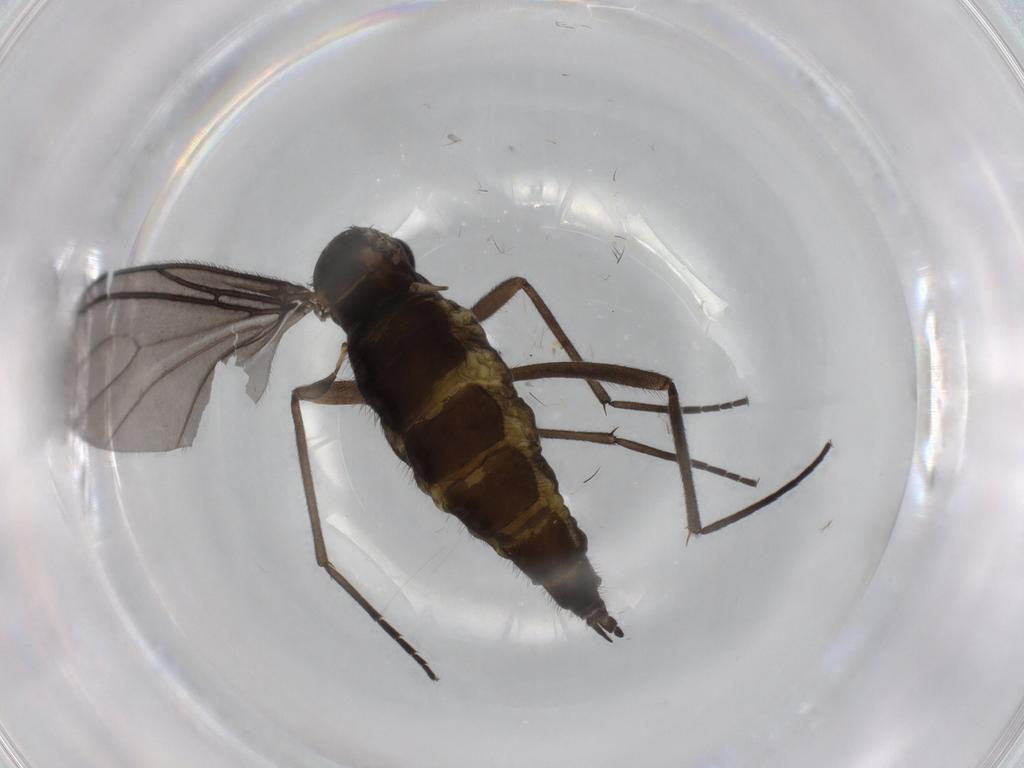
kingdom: Animalia
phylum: Arthropoda
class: Insecta
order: Diptera
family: Sciaridae
